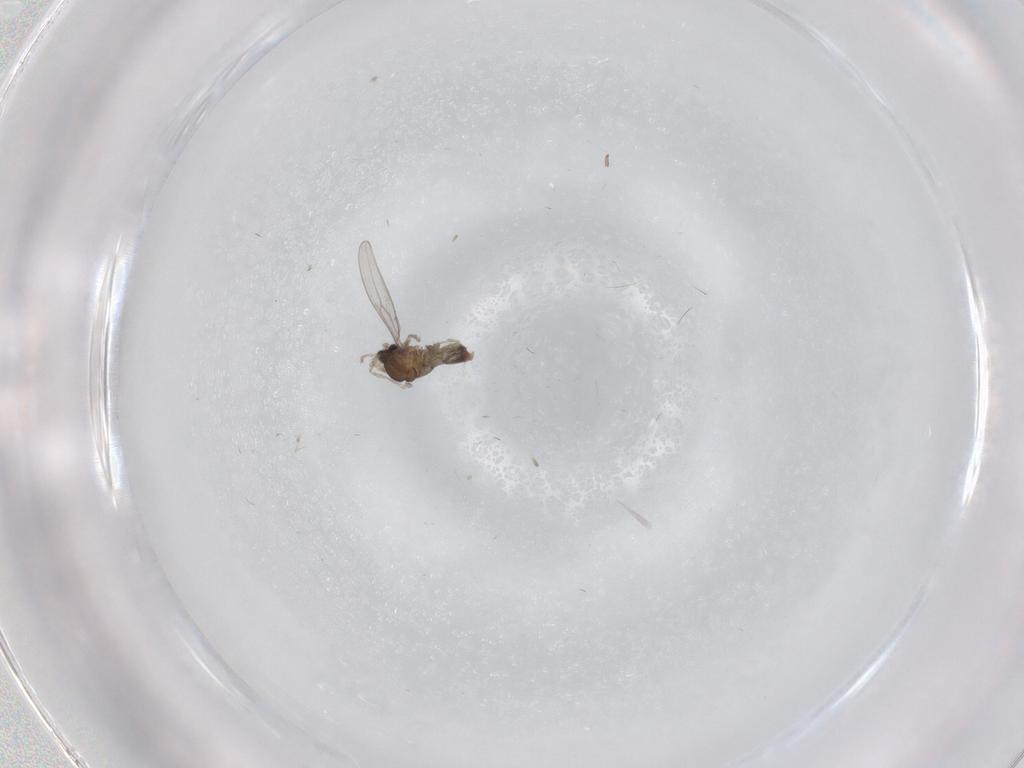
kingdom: Animalia
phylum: Arthropoda
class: Insecta
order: Diptera
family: Cecidomyiidae
